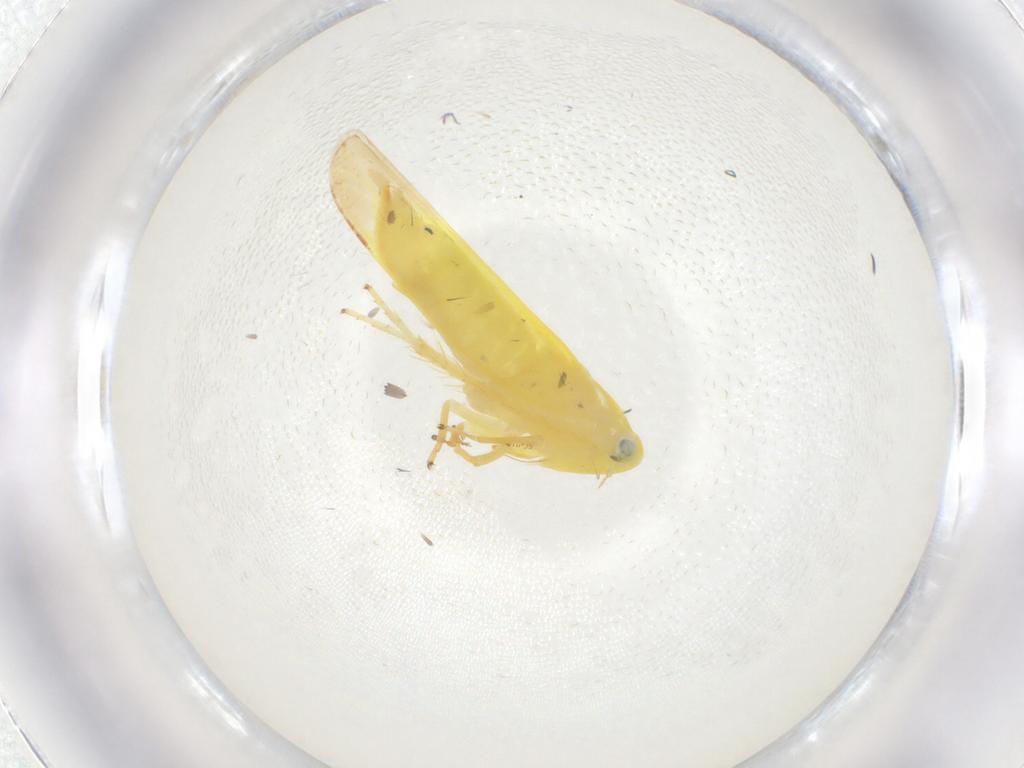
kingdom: Animalia
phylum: Arthropoda
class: Insecta
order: Hemiptera
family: Cicadellidae
